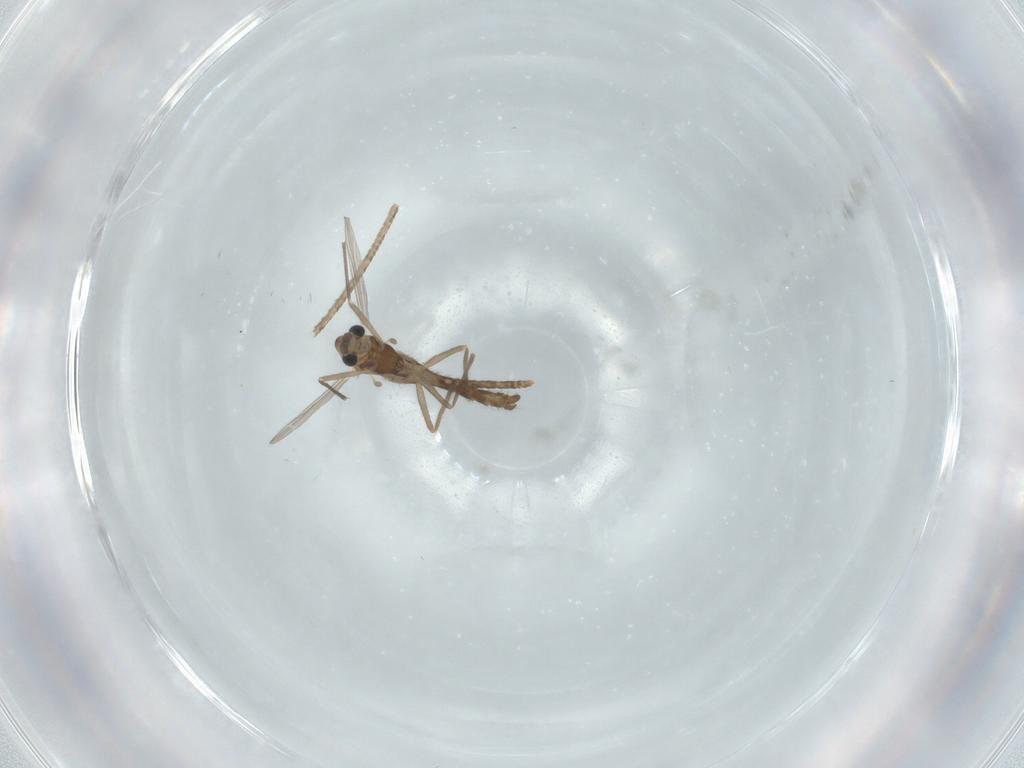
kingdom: Animalia
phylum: Arthropoda
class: Insecta
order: Diptera
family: Chironomidae
